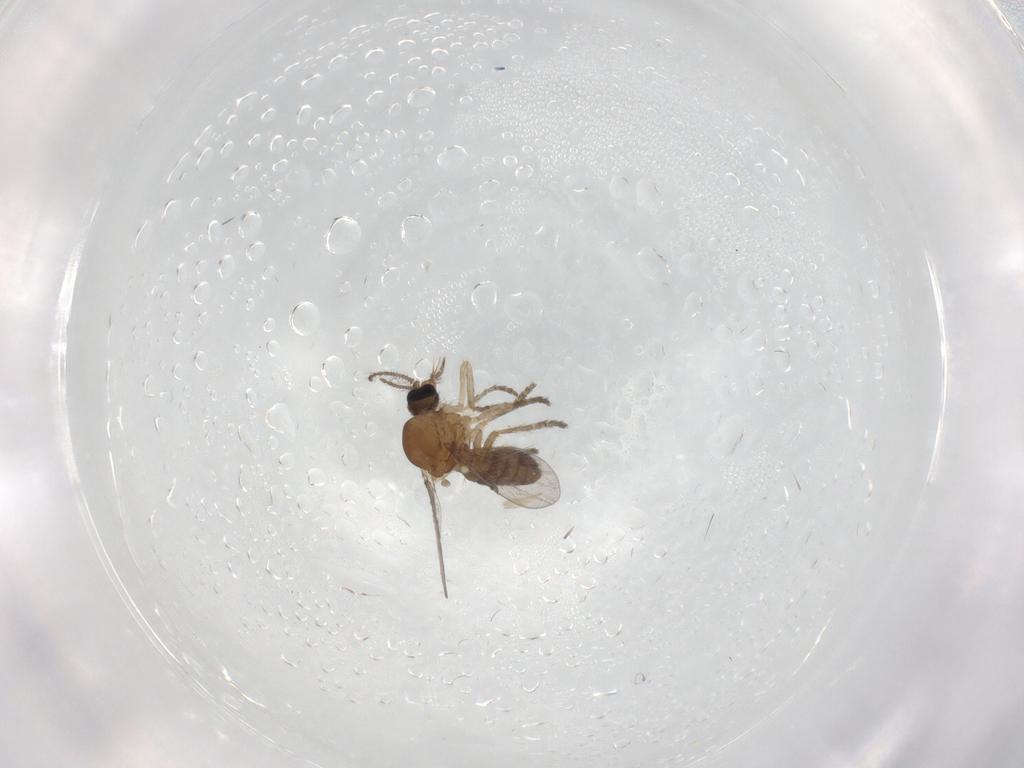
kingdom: Animalia
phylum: Arthropoda
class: Insecta
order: Diptera
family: Ceratopogonidae
